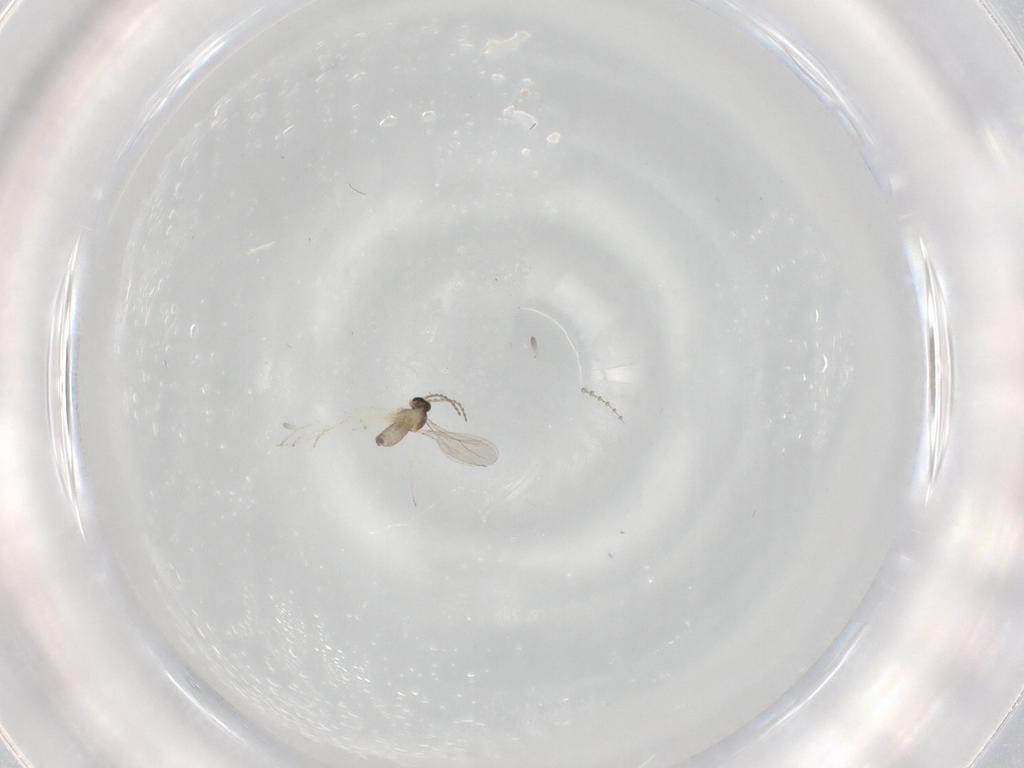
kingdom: Animalia
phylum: Arthropoda
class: Insecta
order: Diptera
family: Cecidomyiidae
